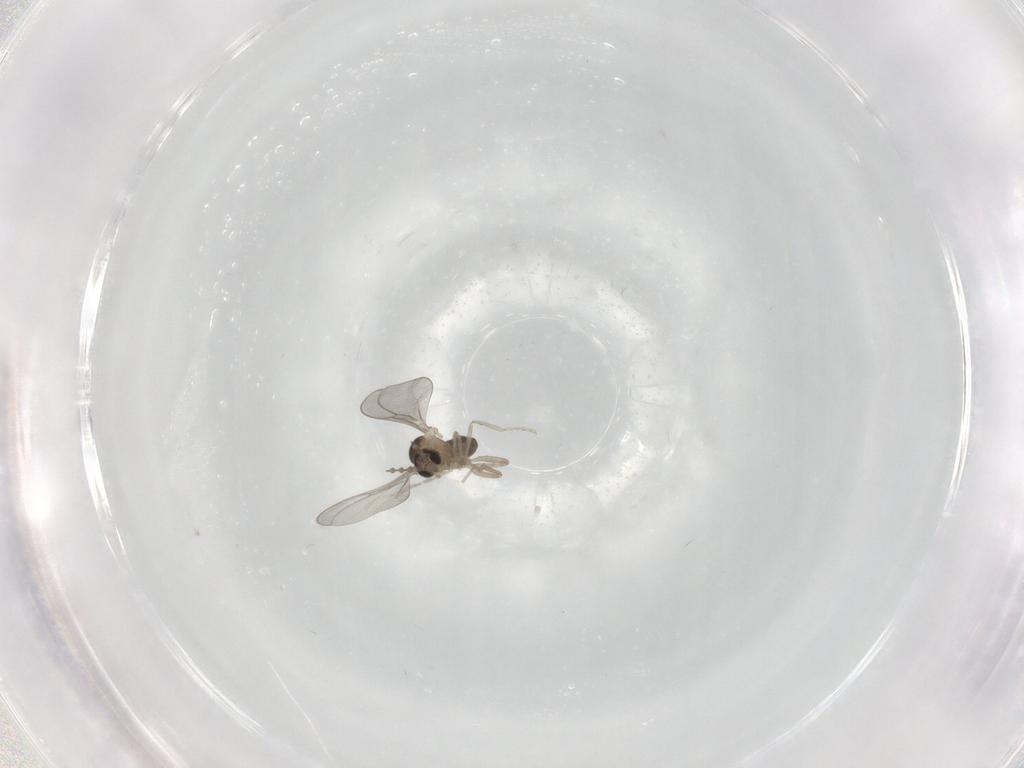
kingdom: Animalia
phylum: Arthropoda
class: Insecta
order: Diptera
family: Cecidomyiidae
